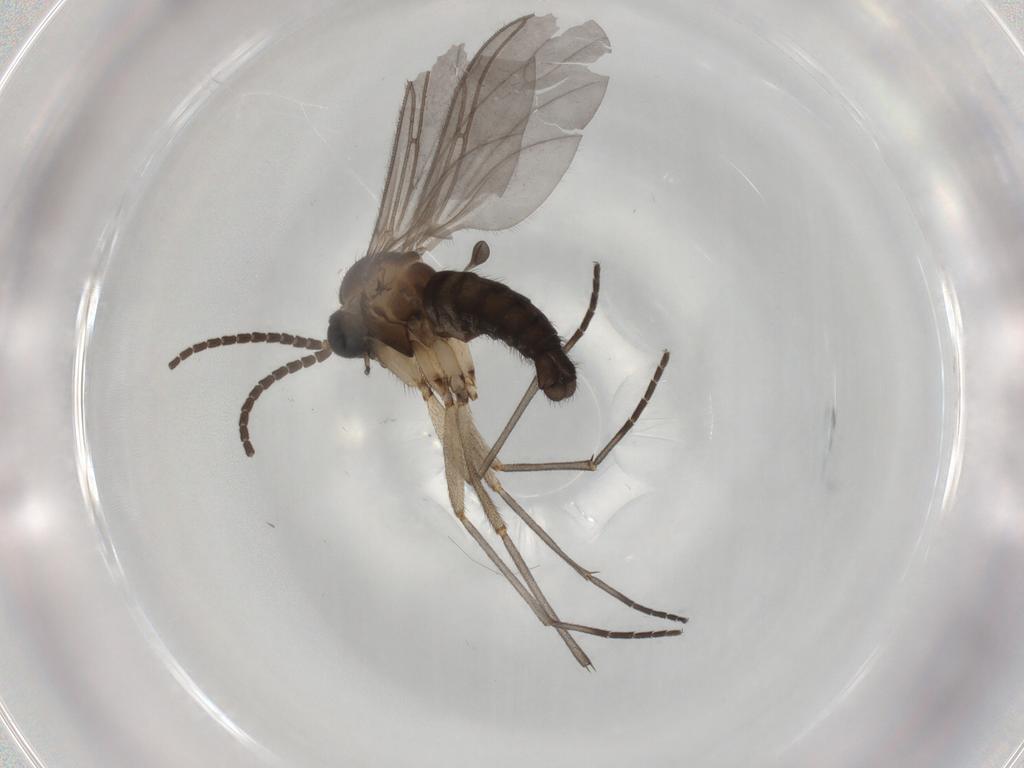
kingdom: Animalia
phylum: Arthropoda
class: Insecta
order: Diptera
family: Sciaridae
